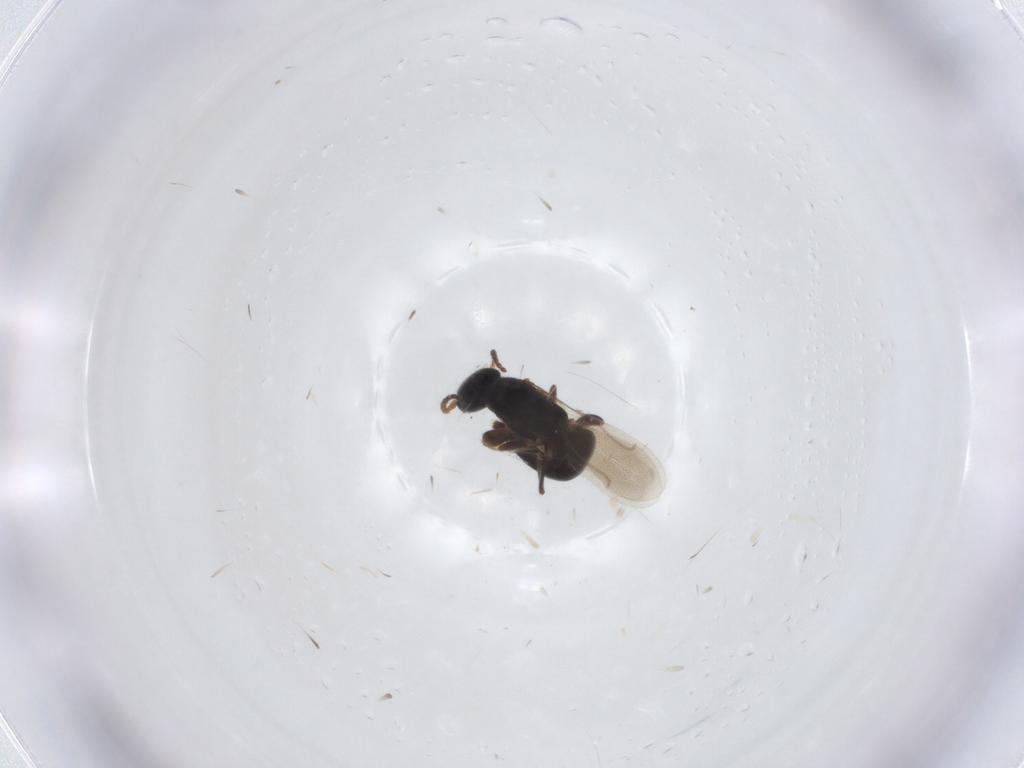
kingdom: Animalia
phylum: Arthropoda
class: Insecta
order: Hymenoptera
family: Bethylidae
